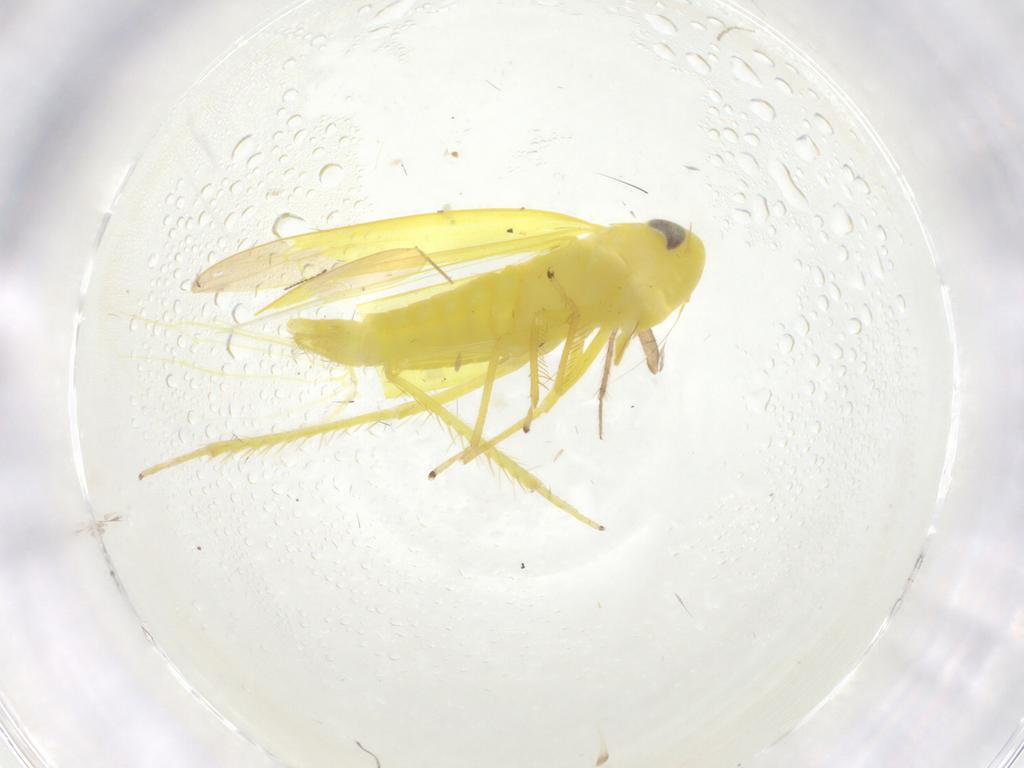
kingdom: Animalia
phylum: Arthropoda
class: Insecta
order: Hemiptera
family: Cicadellidae
